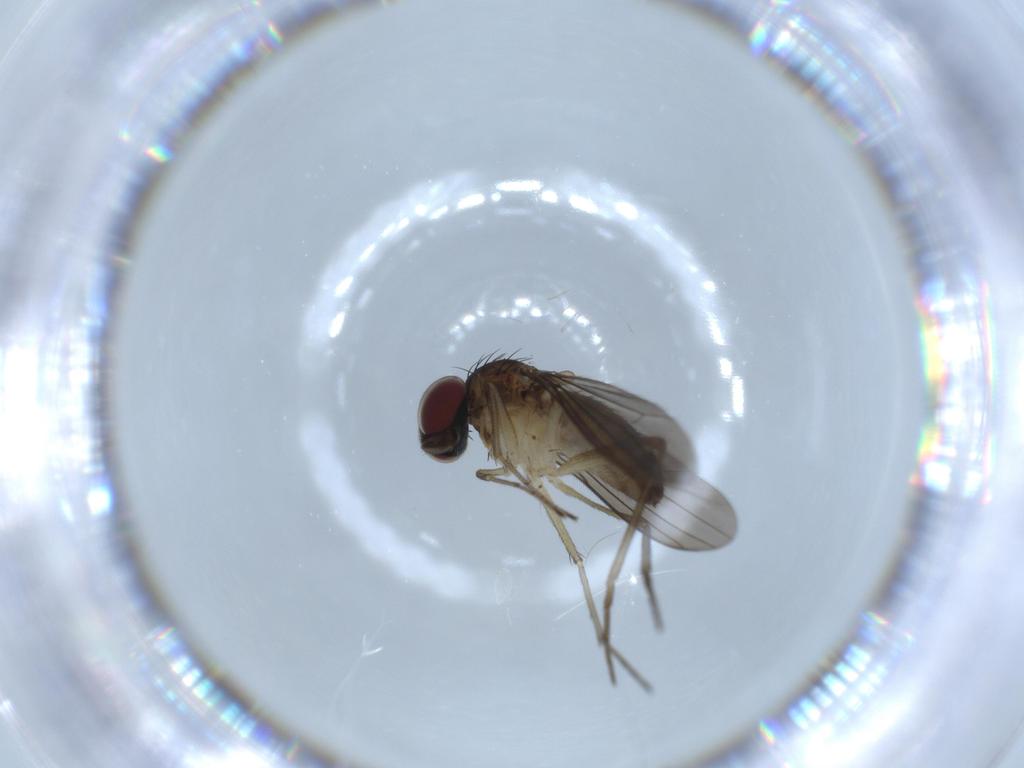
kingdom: Animalia
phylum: Arthropoda
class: Insecta
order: Diptera
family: Dolichopodidae
